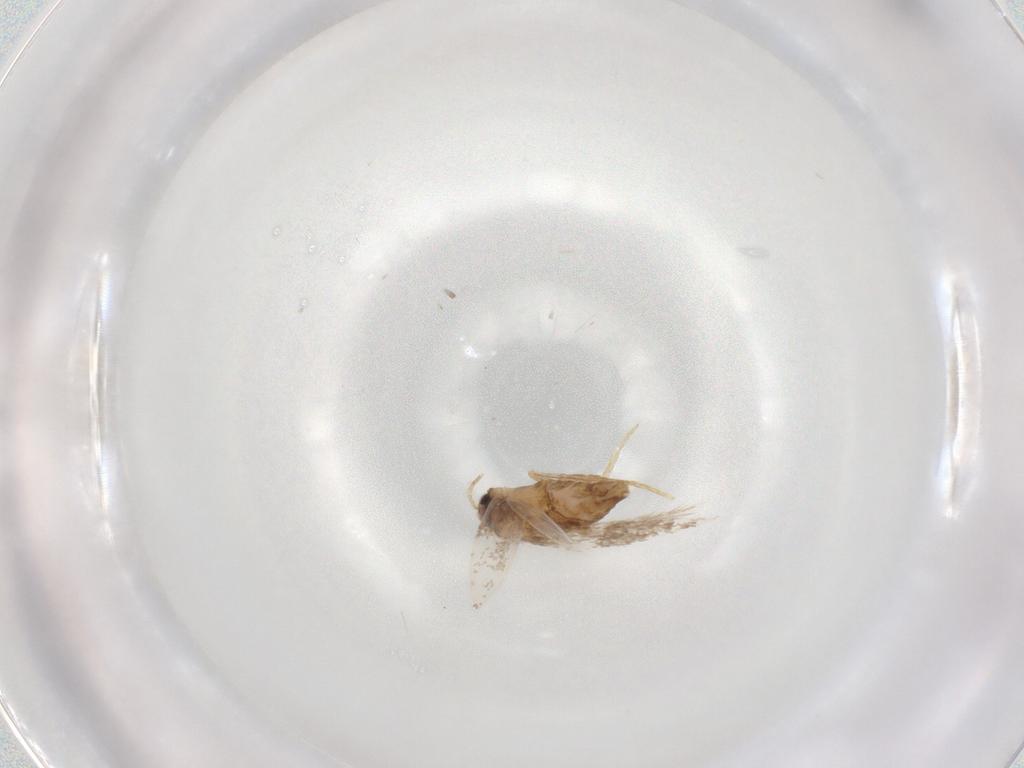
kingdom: Animalia
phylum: Arthropoda
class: Insecta
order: Lepidoptera
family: Nepticulidae
